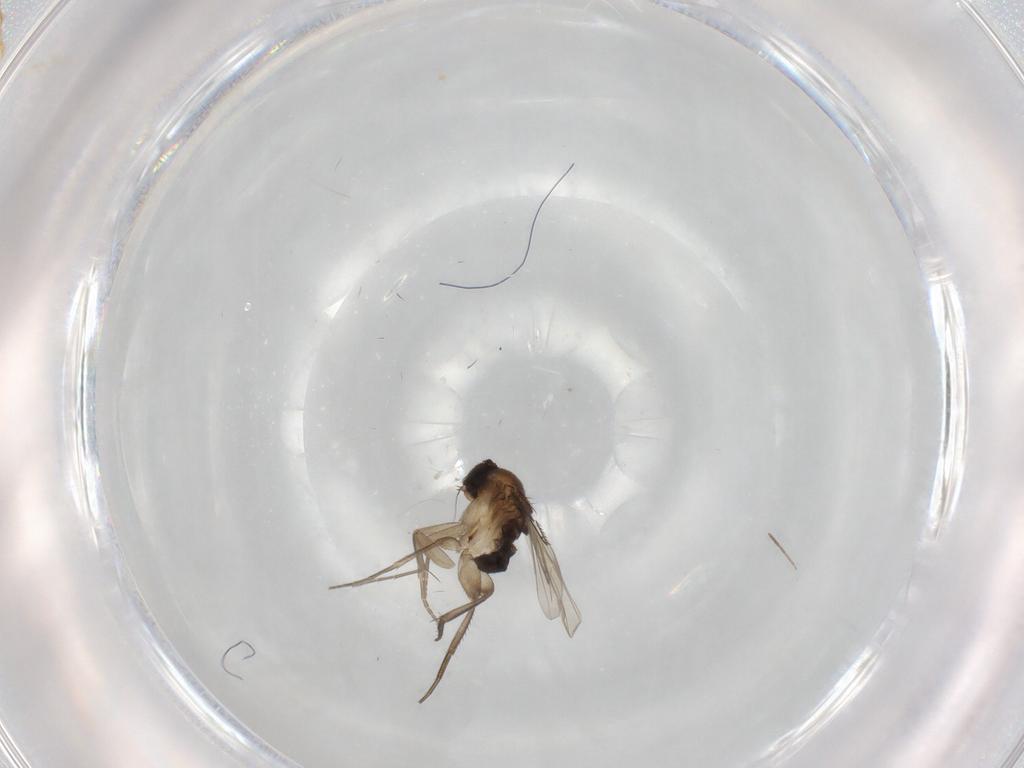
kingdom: Animalia
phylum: Arthropoda
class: Insecta
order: Diptera
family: Phoridae
